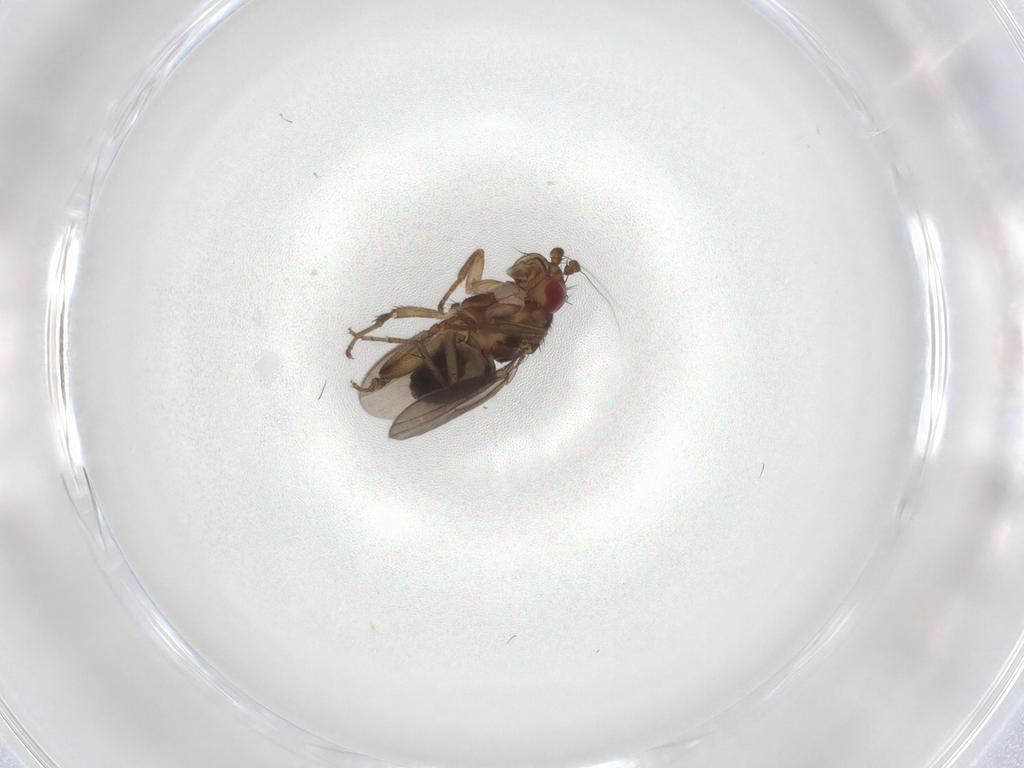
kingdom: Animalia
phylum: Arthropoda
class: Insecta
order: Diptera
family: Sphaeroceridae
